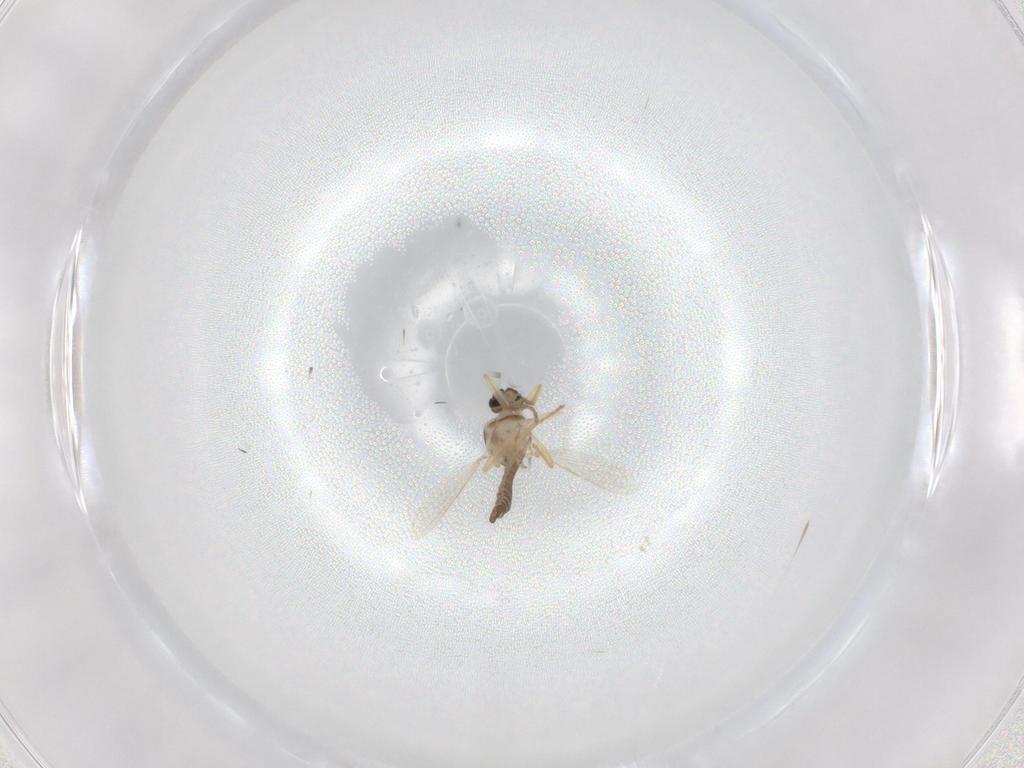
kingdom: Animalia
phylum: Arthropoda
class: Insecta
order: Diptera
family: Ceratopogonidae
